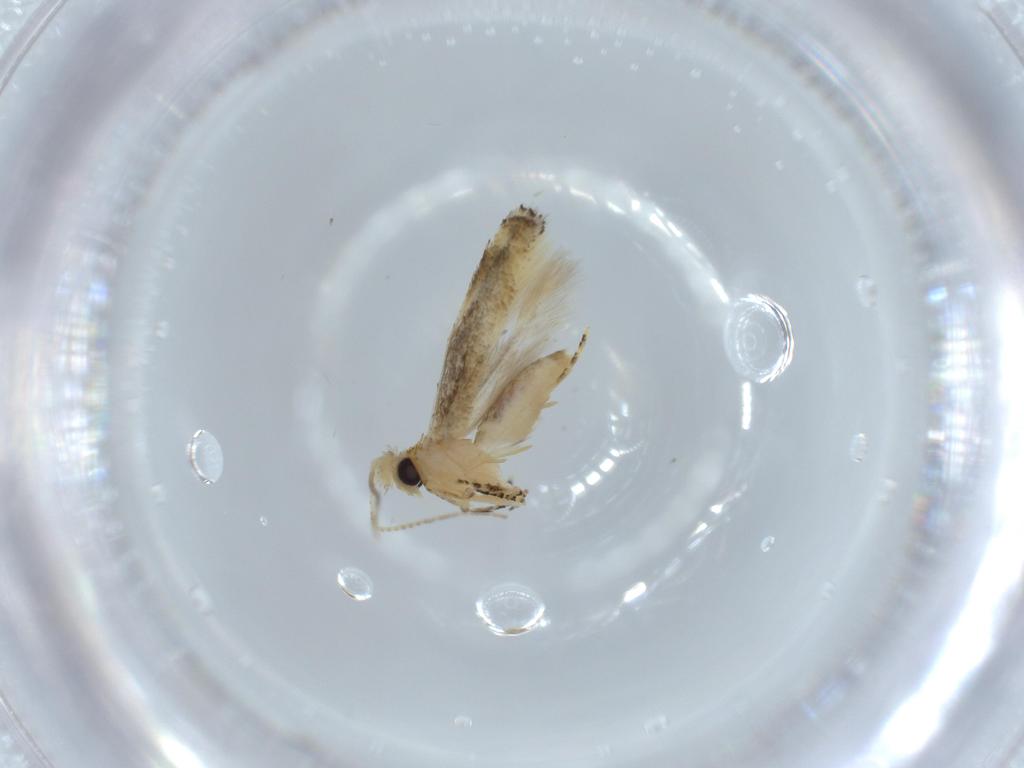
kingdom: Animalia
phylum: Arthropoda
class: Insecta
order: Lepidoptera
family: Bucculatricidae
